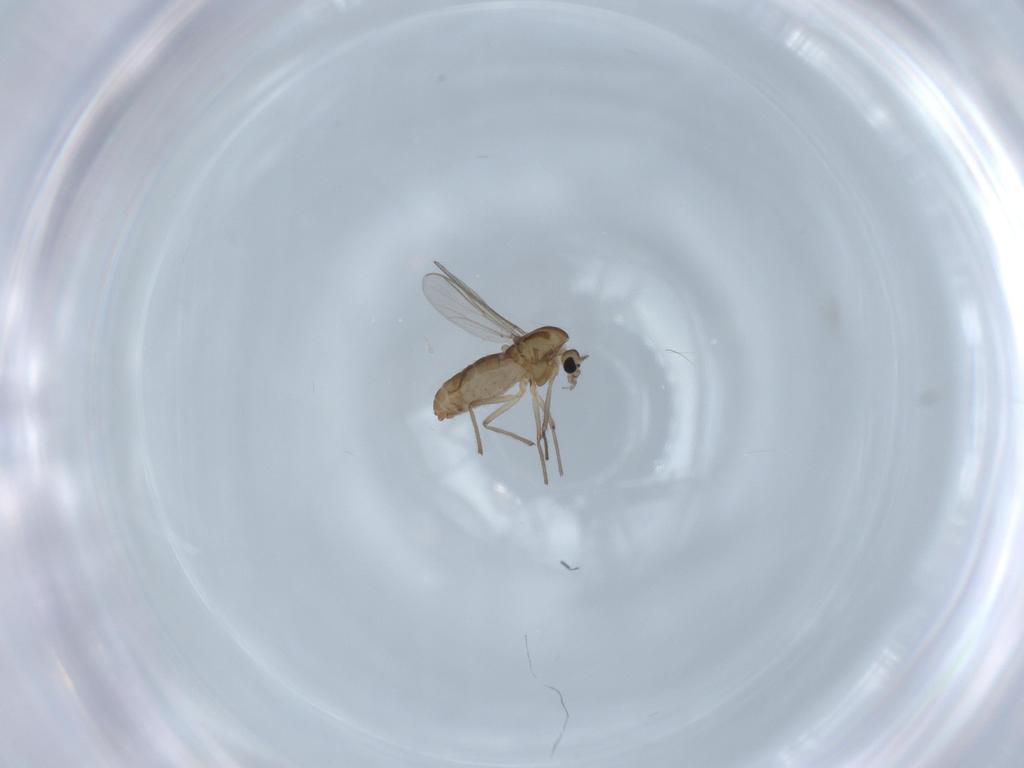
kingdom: Animalia
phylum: Arthropoda
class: Insecta
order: Diptera
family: Chironomidae
